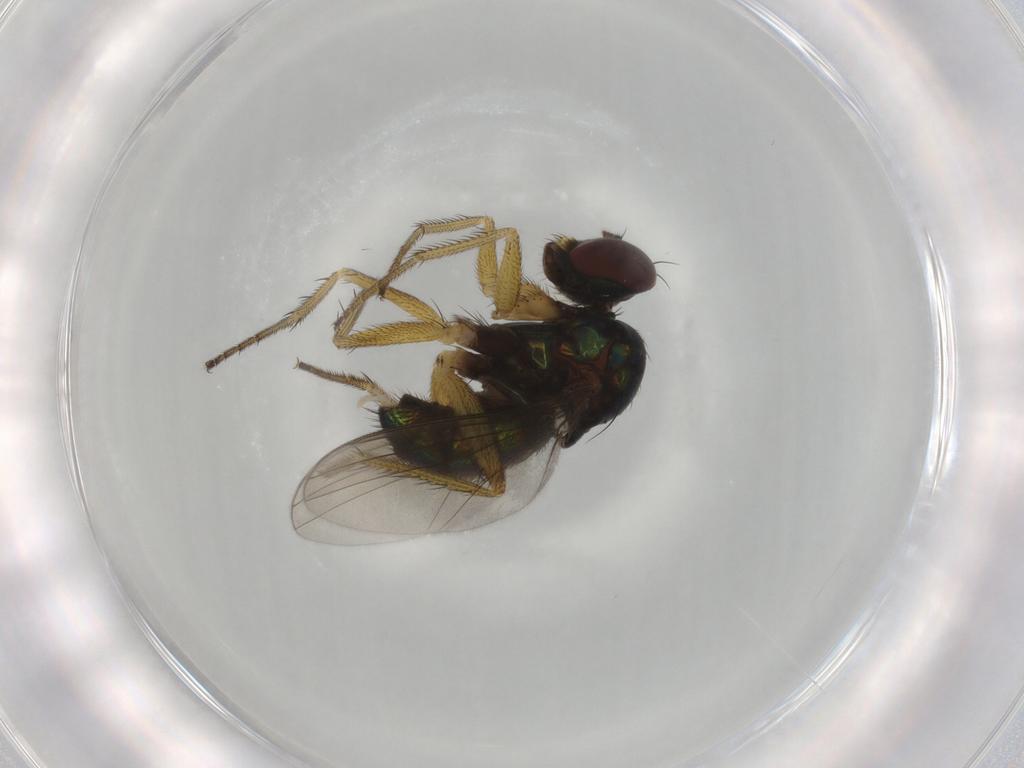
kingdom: Animalia
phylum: Arthropoda
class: Insecta
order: Diptera
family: Dolichopodidae
